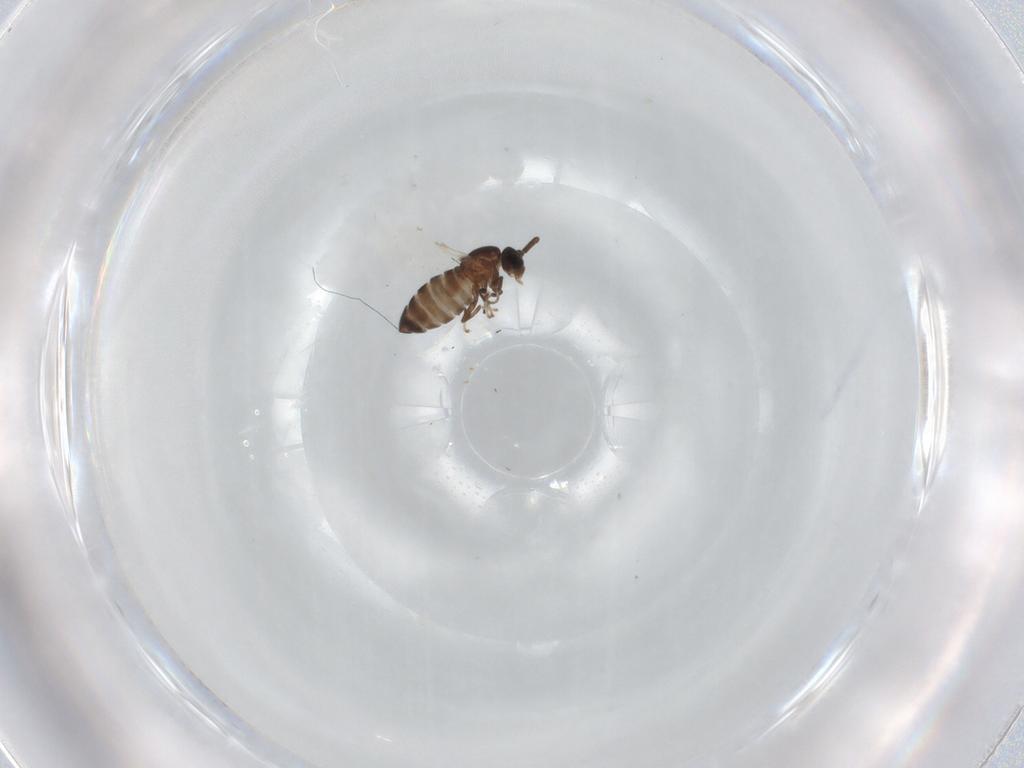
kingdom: Animalia
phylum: Arthropoda
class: Insecta
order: Diptera
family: Scatopsidae
